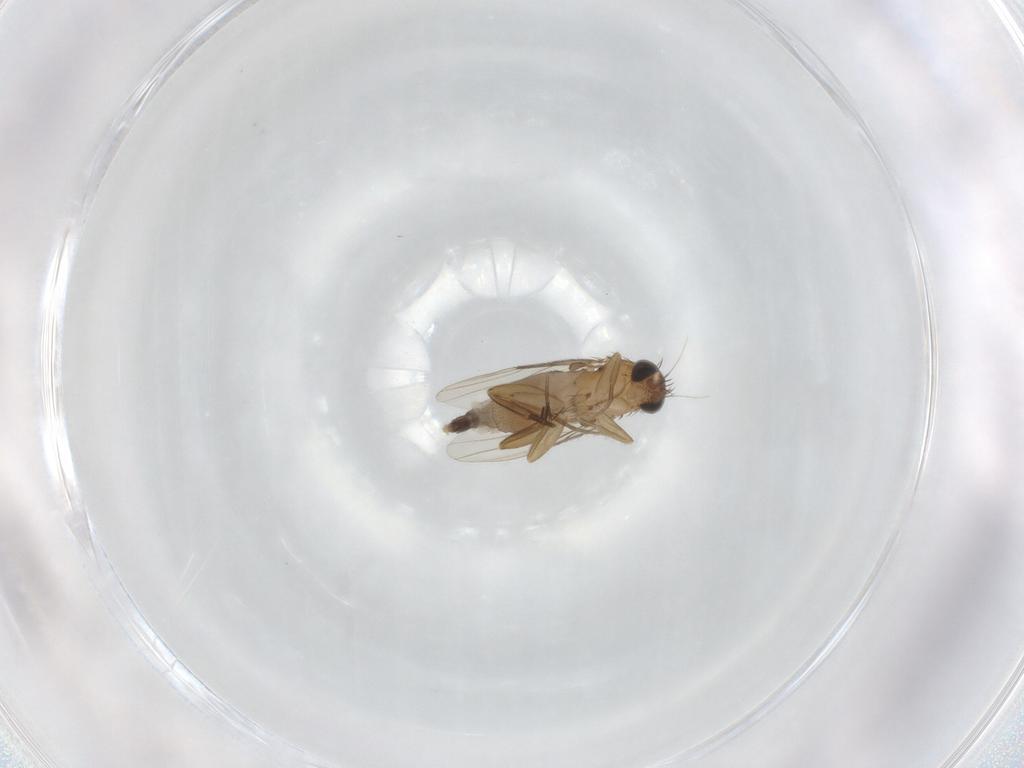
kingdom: Animalia
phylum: Arthropoda
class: Insecta
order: Diptera
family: Phoridae
